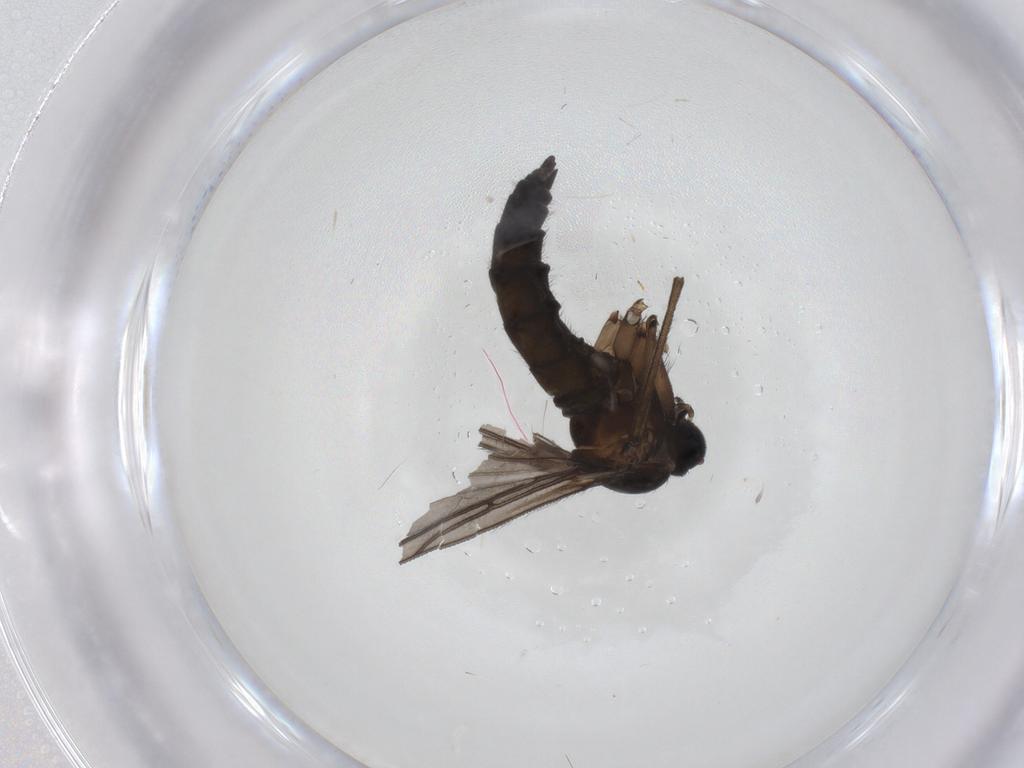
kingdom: Animalia
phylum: Arthropoda
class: Insecta
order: Diptera
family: Sciaridae
